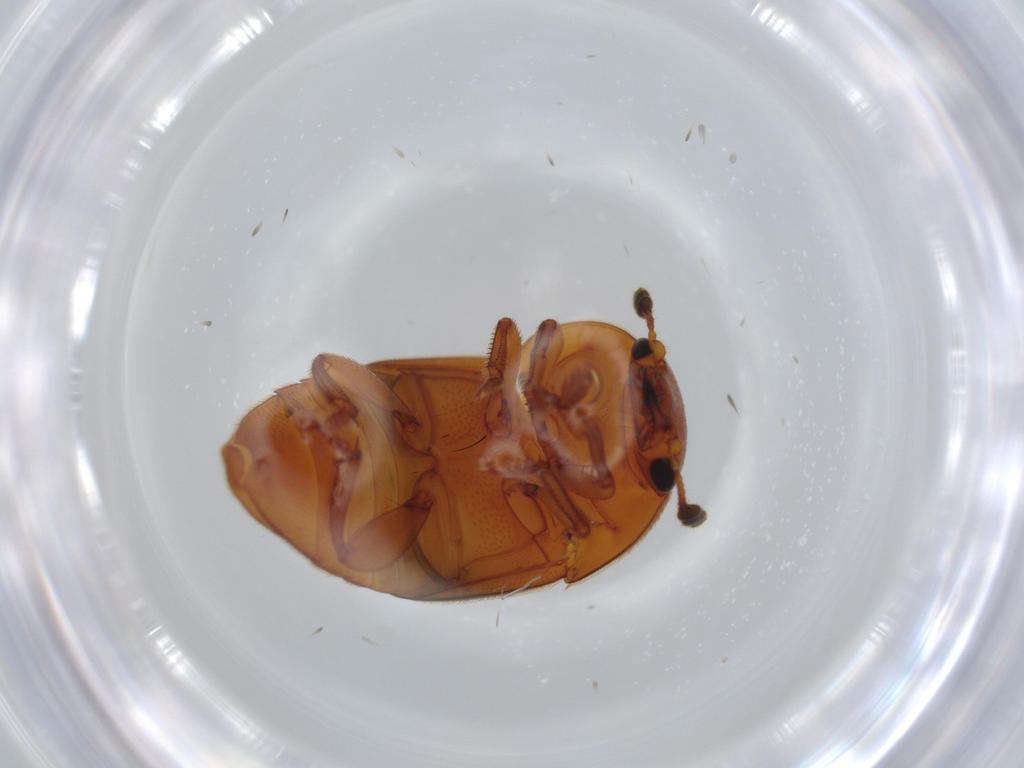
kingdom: Animalia
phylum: Arthropoda
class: Insecta
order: Coleoptera
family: Nitidulidae
